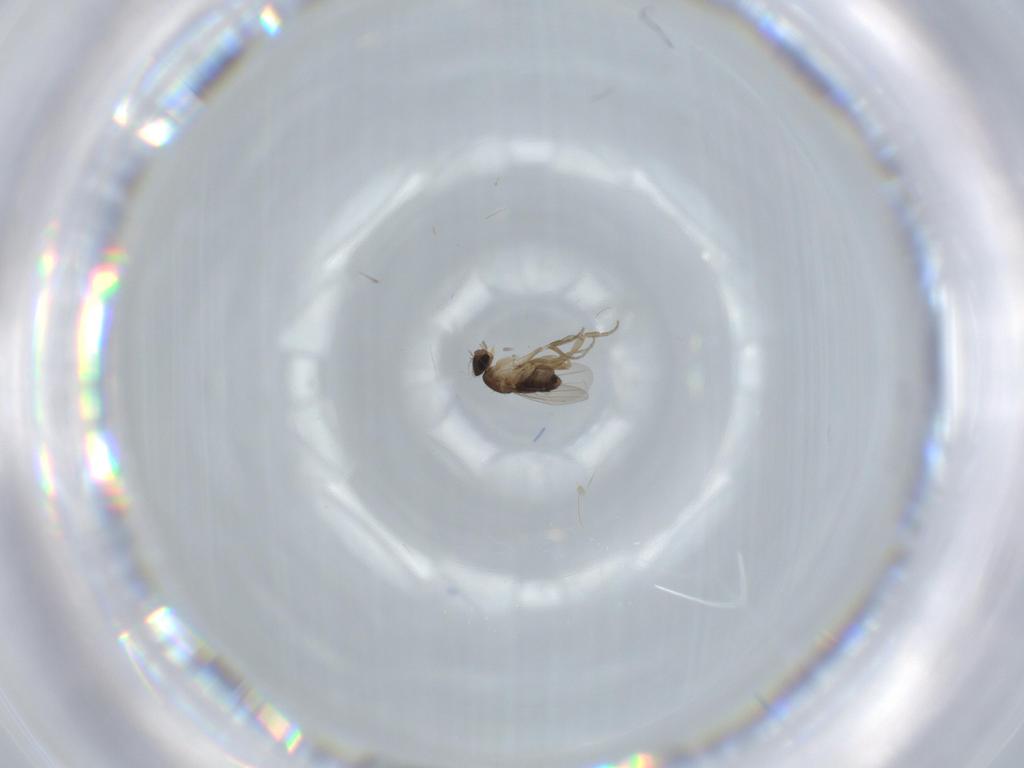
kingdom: Animalia
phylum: Arthropoda
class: Insecta
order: Diptera
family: Phoridae
